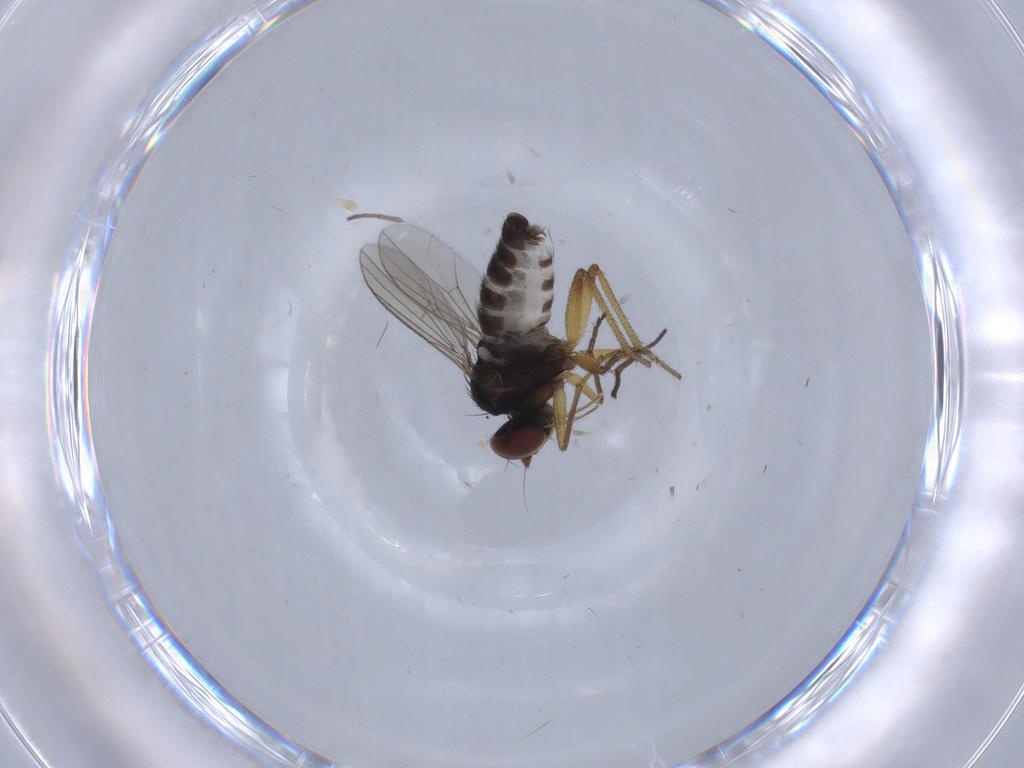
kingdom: Animalia
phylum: Arthropoda
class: Insecta
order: Diptera
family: Dolichopodidae
